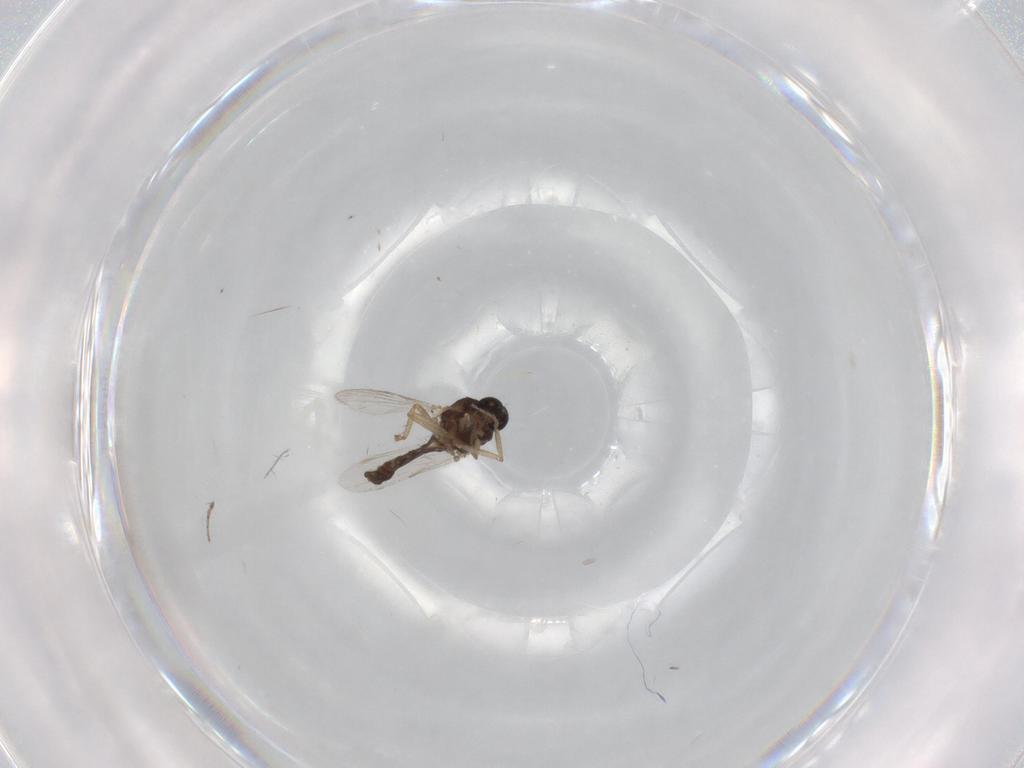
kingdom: Animalia
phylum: Arthropoda
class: Insecta
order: Diptera
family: Ceratopogonidae
